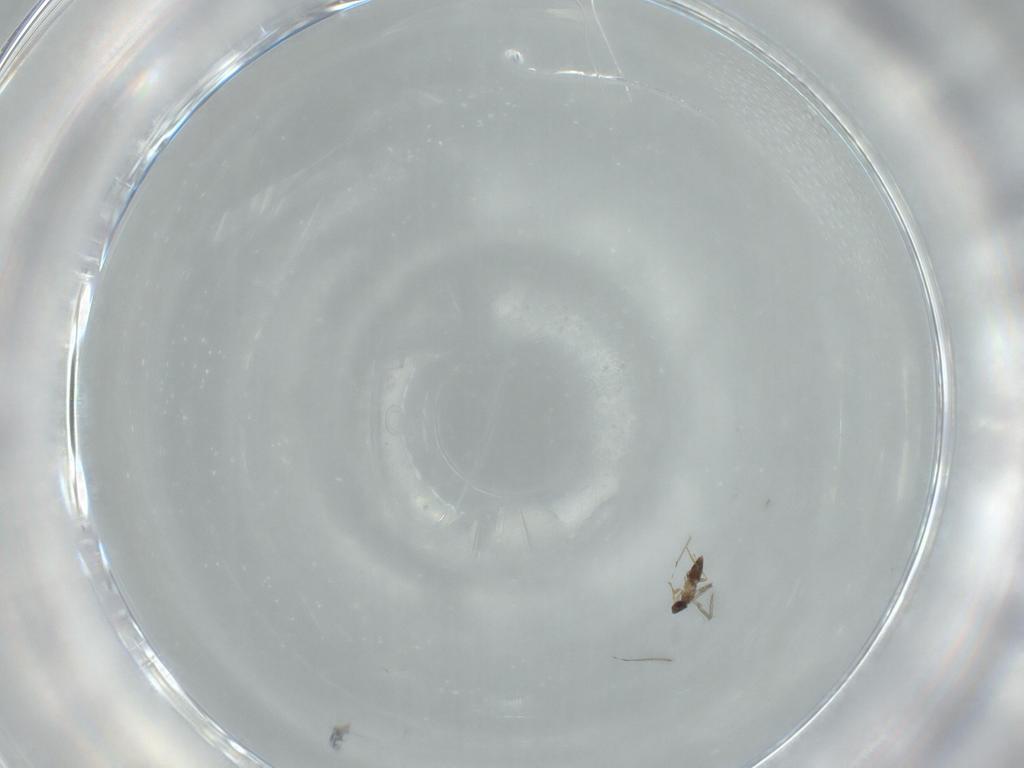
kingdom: Animalia
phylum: Arthropoda
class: Insecta
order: Hymenoptera
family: Mymaridae
